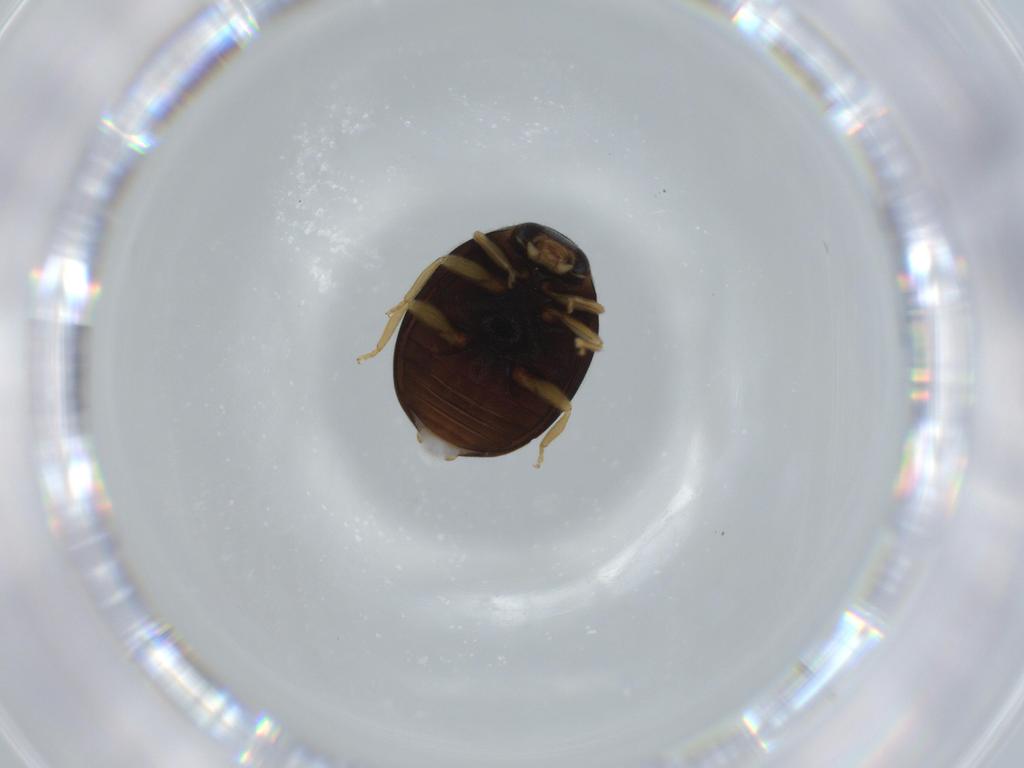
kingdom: Animalia
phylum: Arthropoda
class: Insecta
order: Coleoptera
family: Coccinellidae
